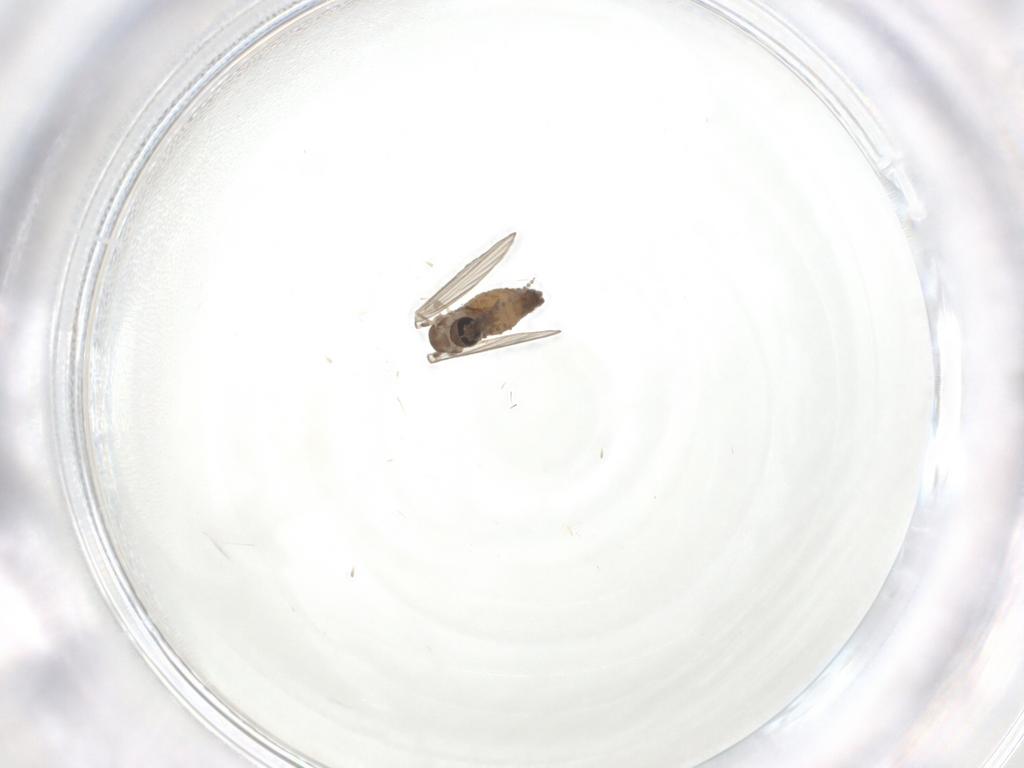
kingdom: Animalia
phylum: Arthropoda
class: Insecta
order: Diptera
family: Psychodidae
